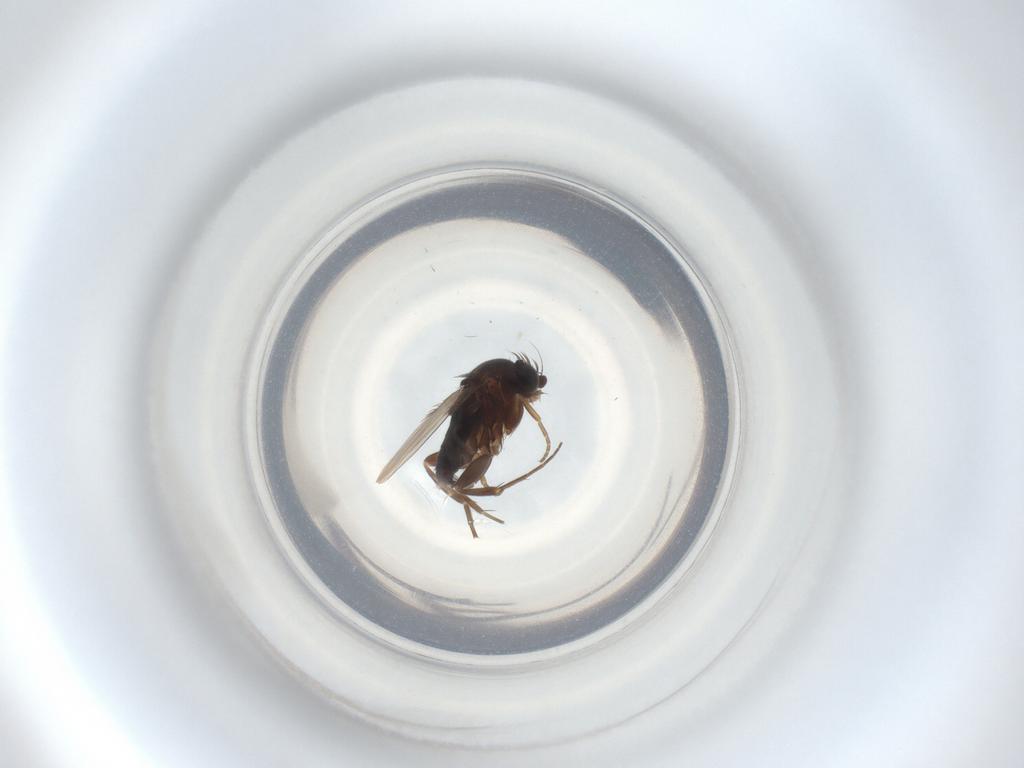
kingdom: Animalia
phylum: Arthropoda
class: Insecta
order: Diptera
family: Phoridae
